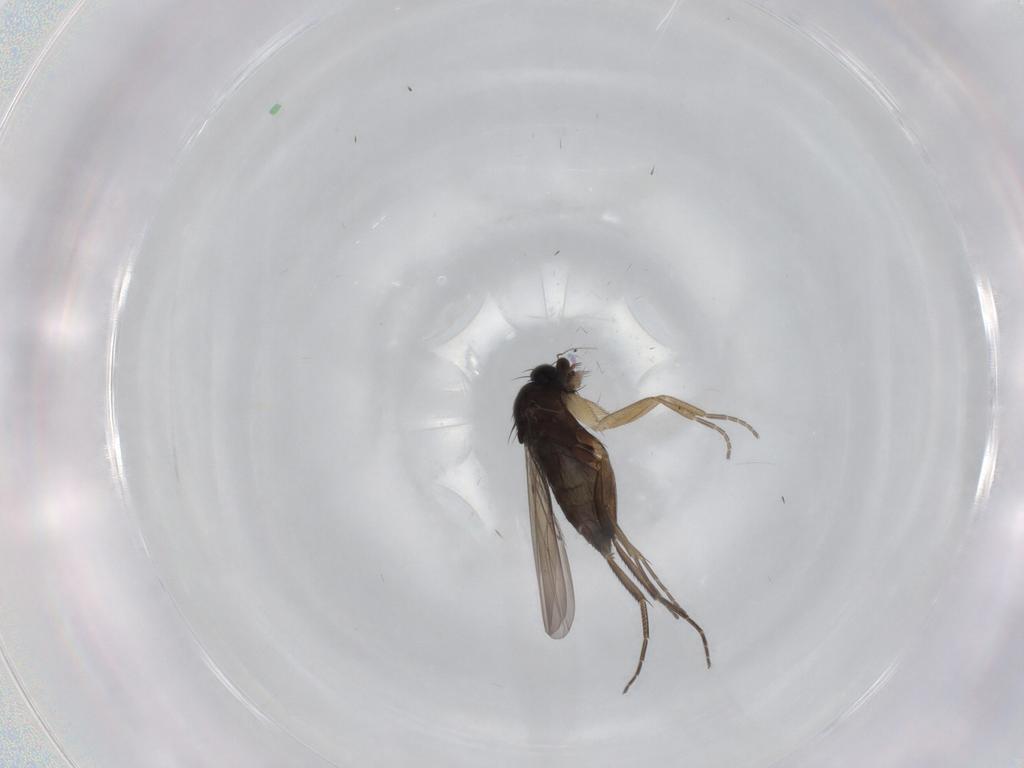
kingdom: Animalia
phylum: Arthropoda
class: Insecta
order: Diptera
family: Phoridae
